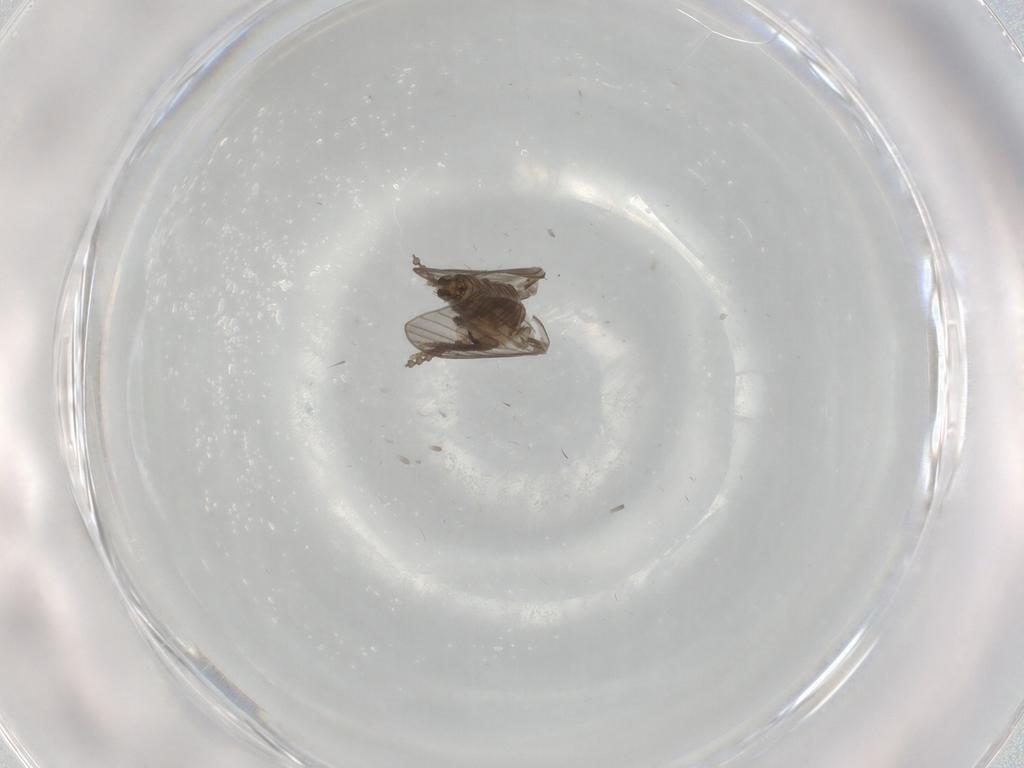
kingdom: Animalia
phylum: Arthropoda
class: Insecta
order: Diptera
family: Psychodidae
